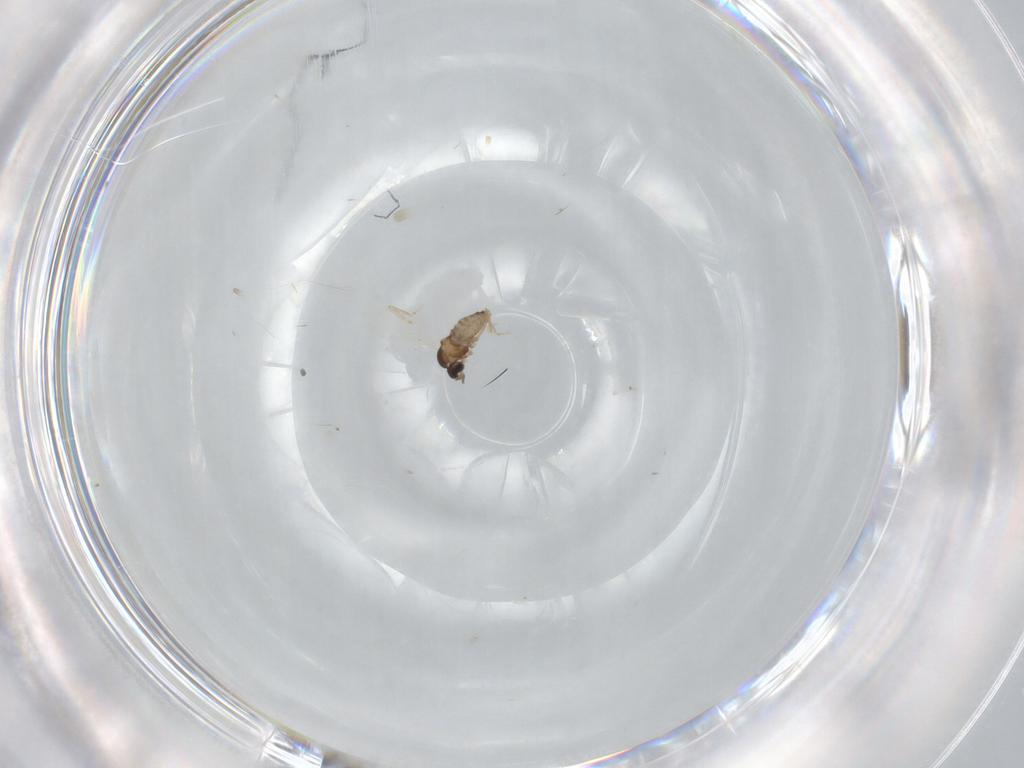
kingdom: Animalia
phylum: Arthropoda
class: Insecta
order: Diptera
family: Cecidomyiidae
